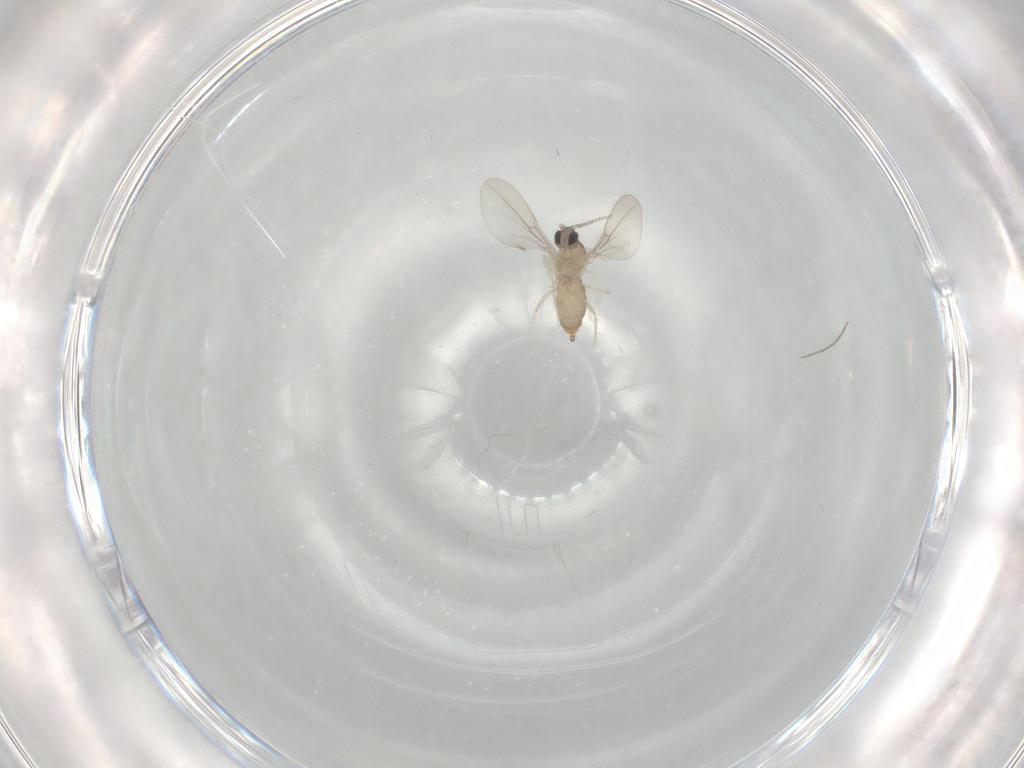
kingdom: Animalia
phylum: Arthropoda
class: Insecta
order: Diptera
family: Cecidomyiidae
